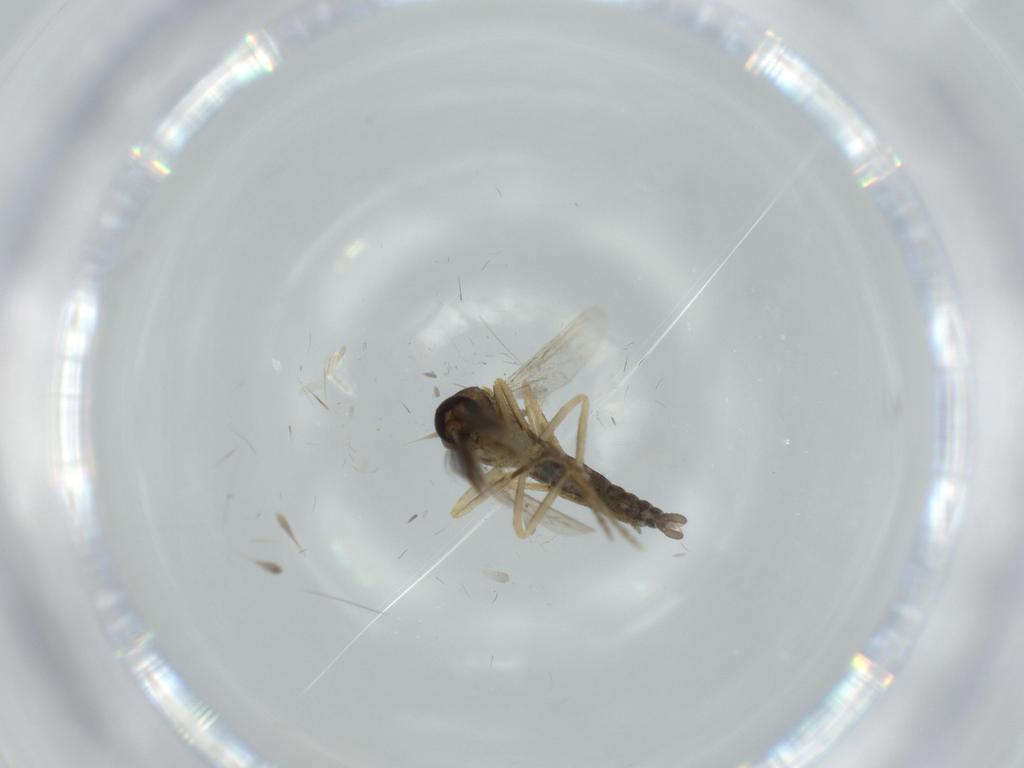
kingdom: Animalia
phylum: Arthropoda
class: Insecta
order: Diptera
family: Ceratopogonidae
